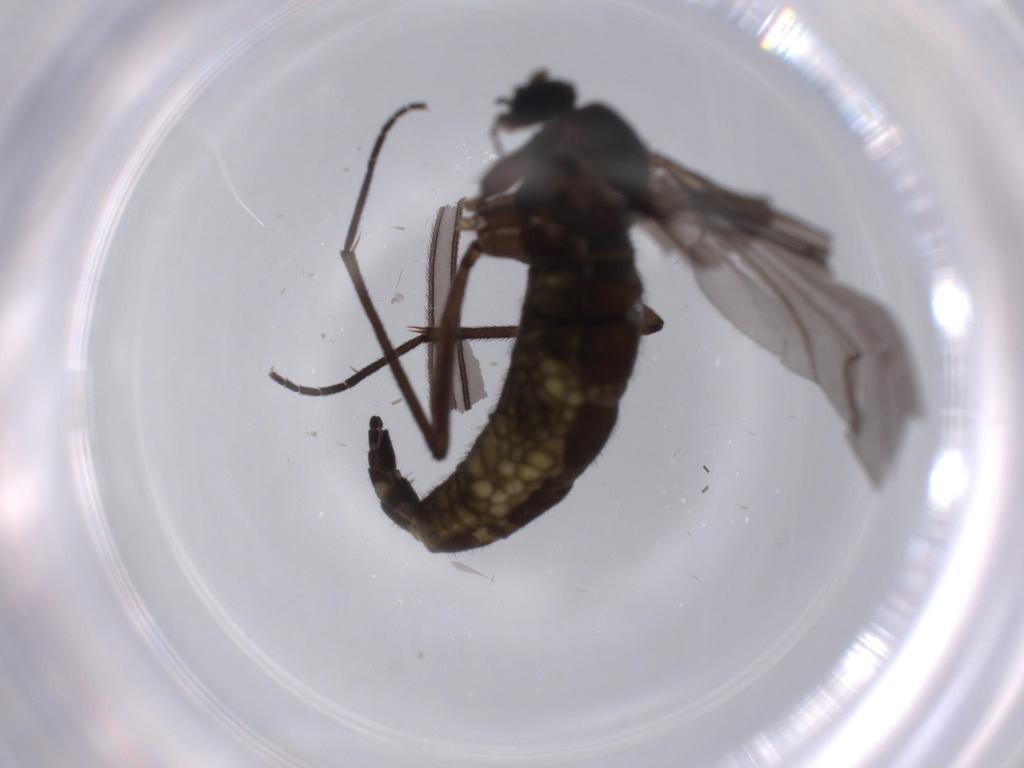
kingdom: Animalia
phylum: Arthropoda
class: Insecta
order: Diptera
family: Sciaridae
